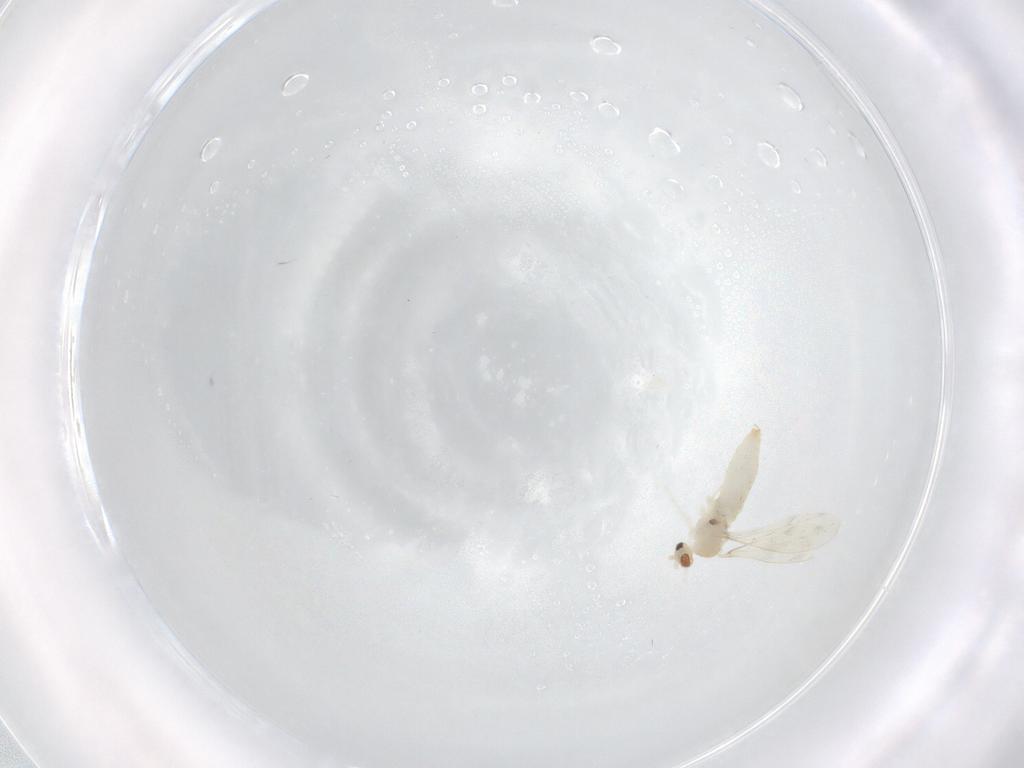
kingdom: Animalia
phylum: Arthropoda
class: Insecta
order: Diptera
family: Cecidomyiidae
